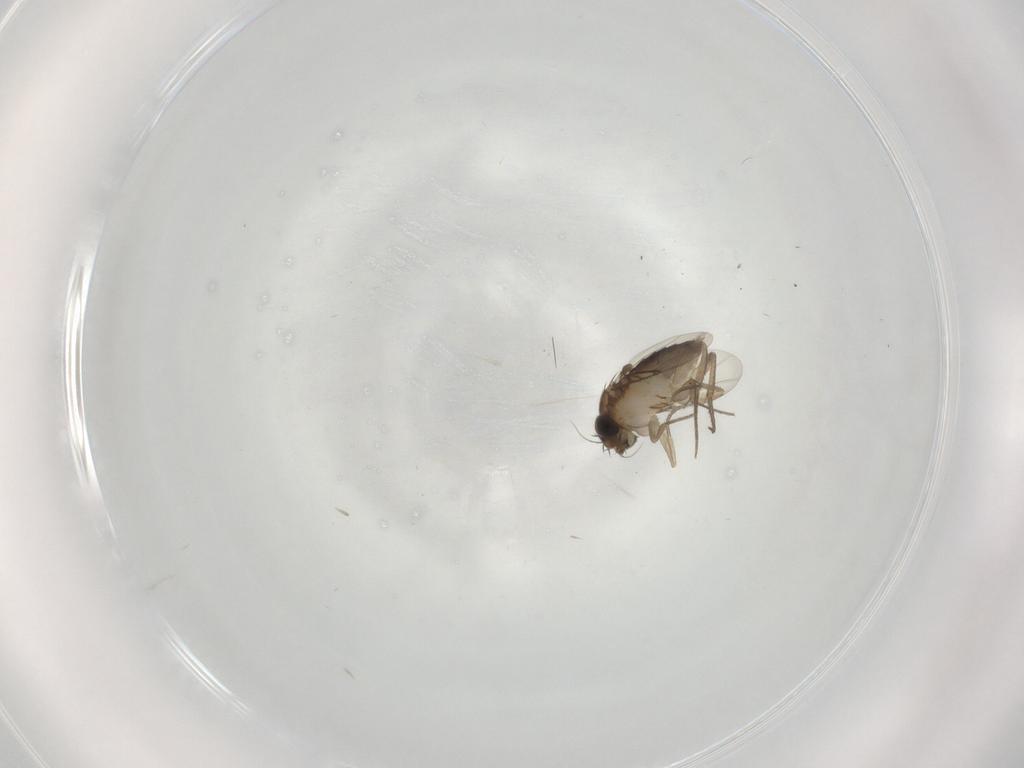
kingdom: Animalia
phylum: Arthropoda
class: Insecta
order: Diptera
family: Phoridae
